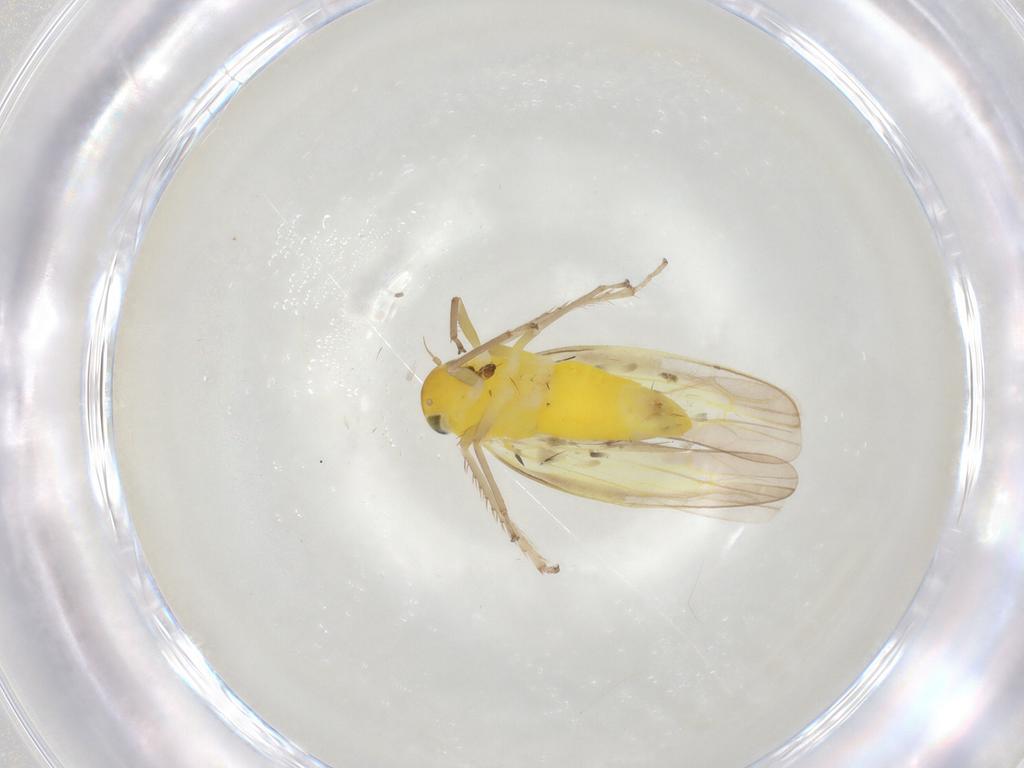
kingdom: Animalia
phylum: Arthropoda
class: Insecta
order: Hemiptera
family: Cicadellidae
